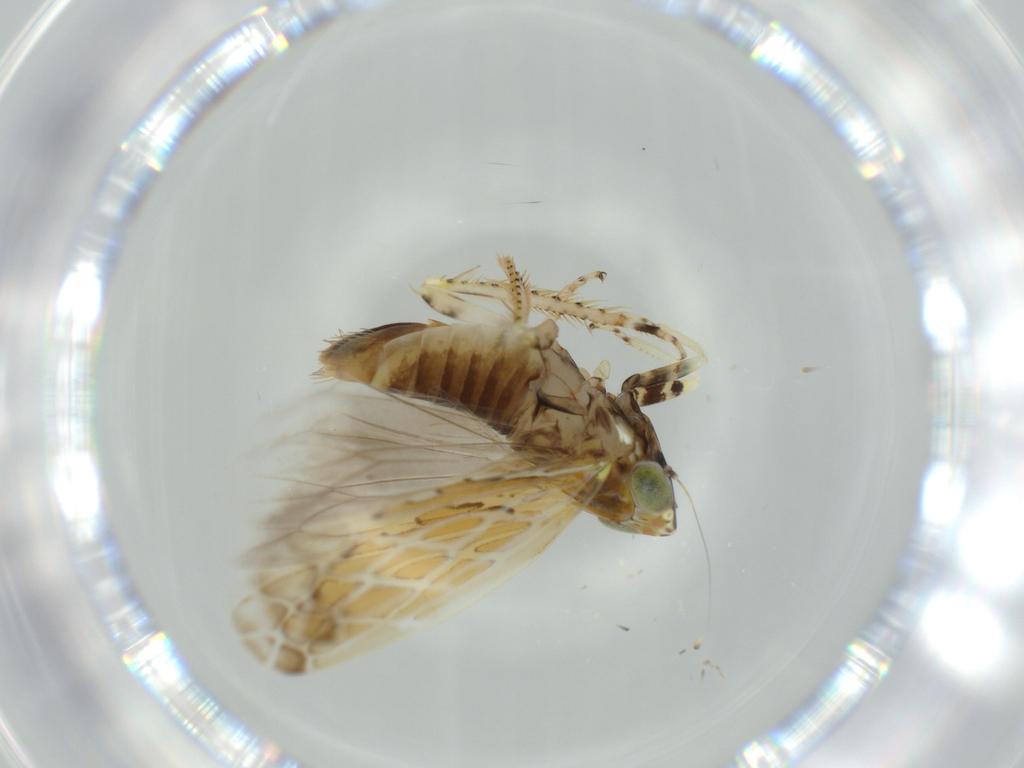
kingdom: Animalia
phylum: Arthropoda
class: Insecta
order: Hemiptera
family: Cicadellidae
